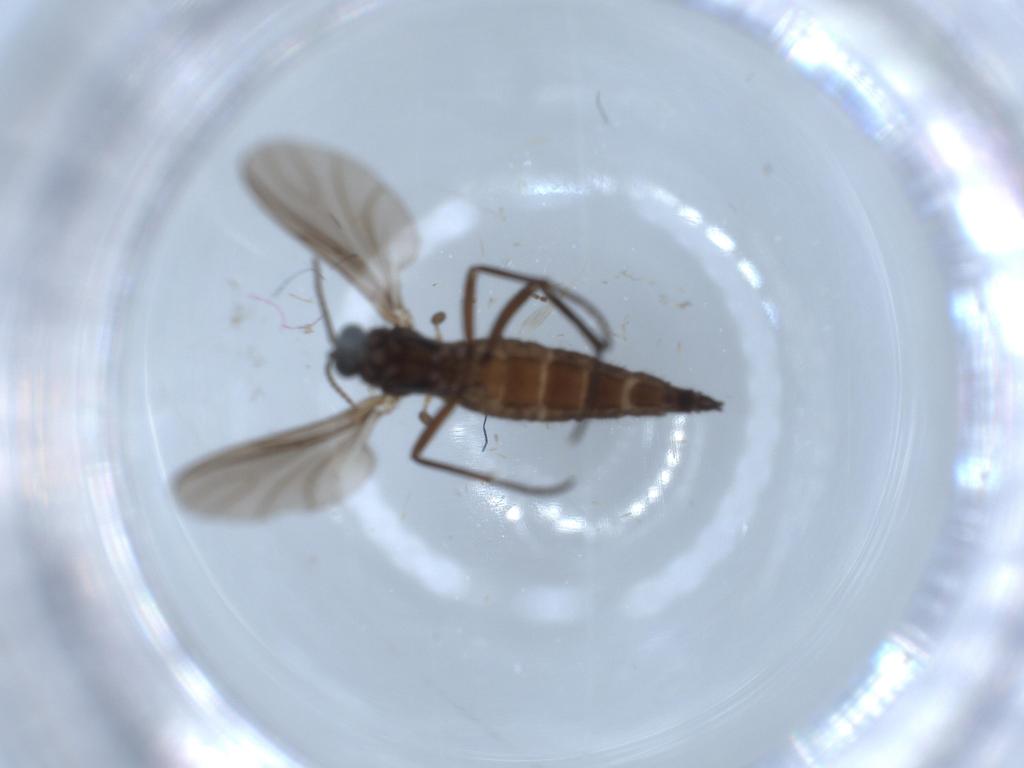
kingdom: Animalia
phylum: Arthropoda
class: Insecta
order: Diptera
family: Sciaridae
